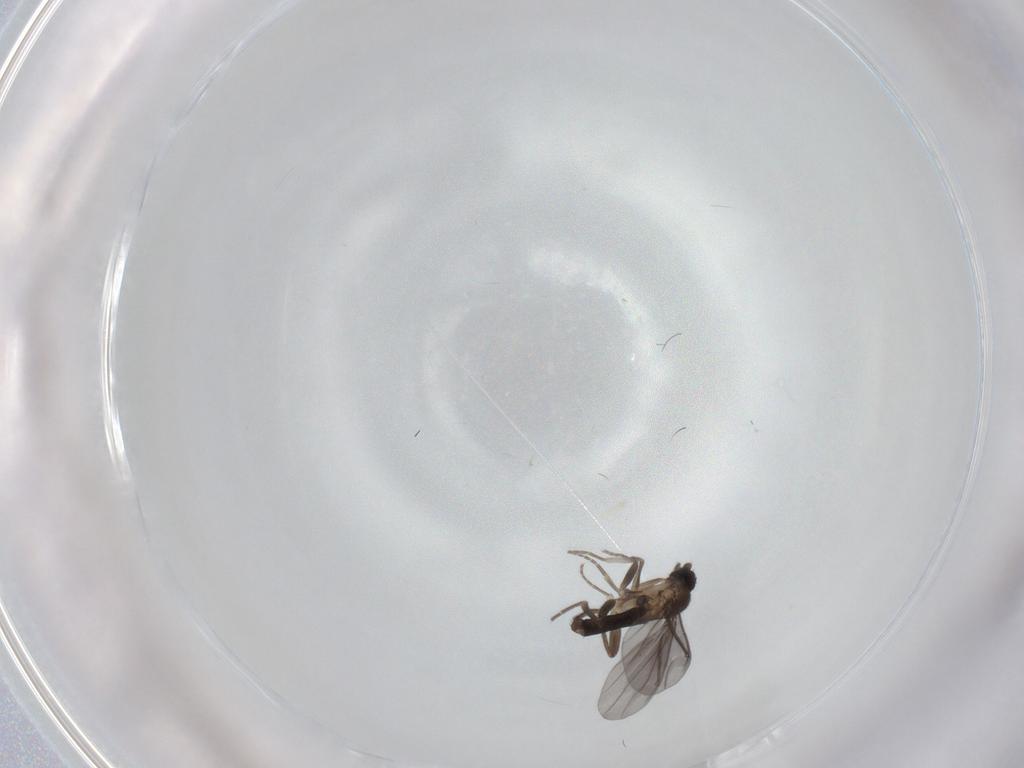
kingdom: Animalia
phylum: Arthropoda
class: Insecta
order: Diptera
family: Phoridae
